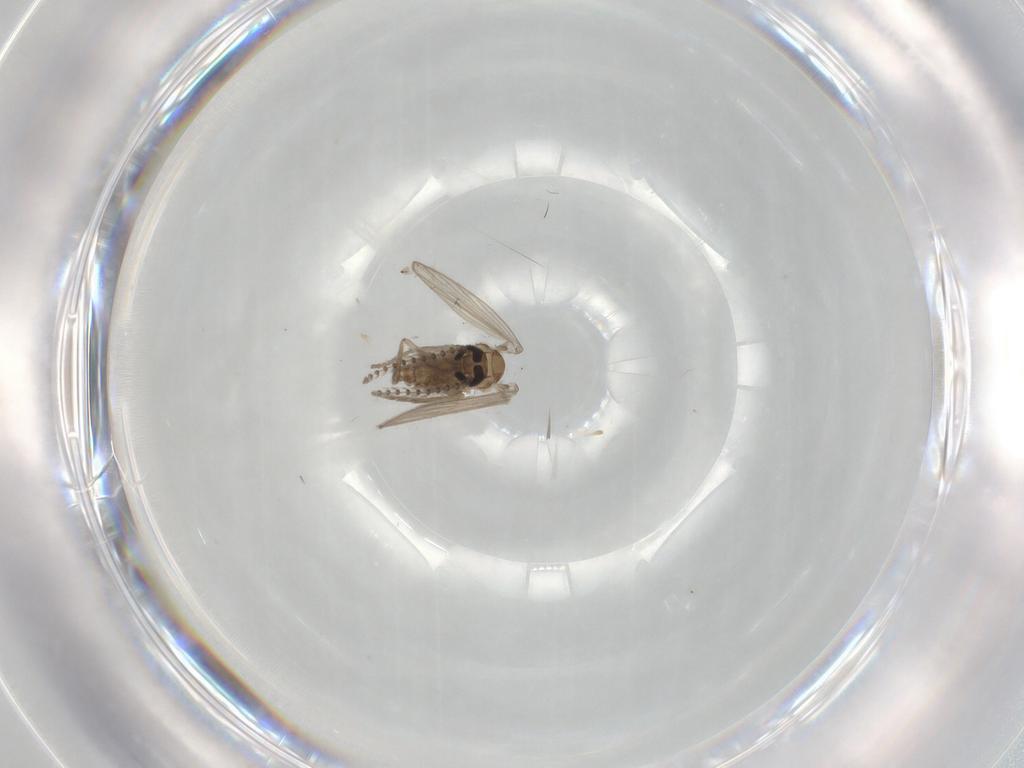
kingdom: Animalia
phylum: Arthropoda
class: Insecta
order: Diptera
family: Psychodidae
